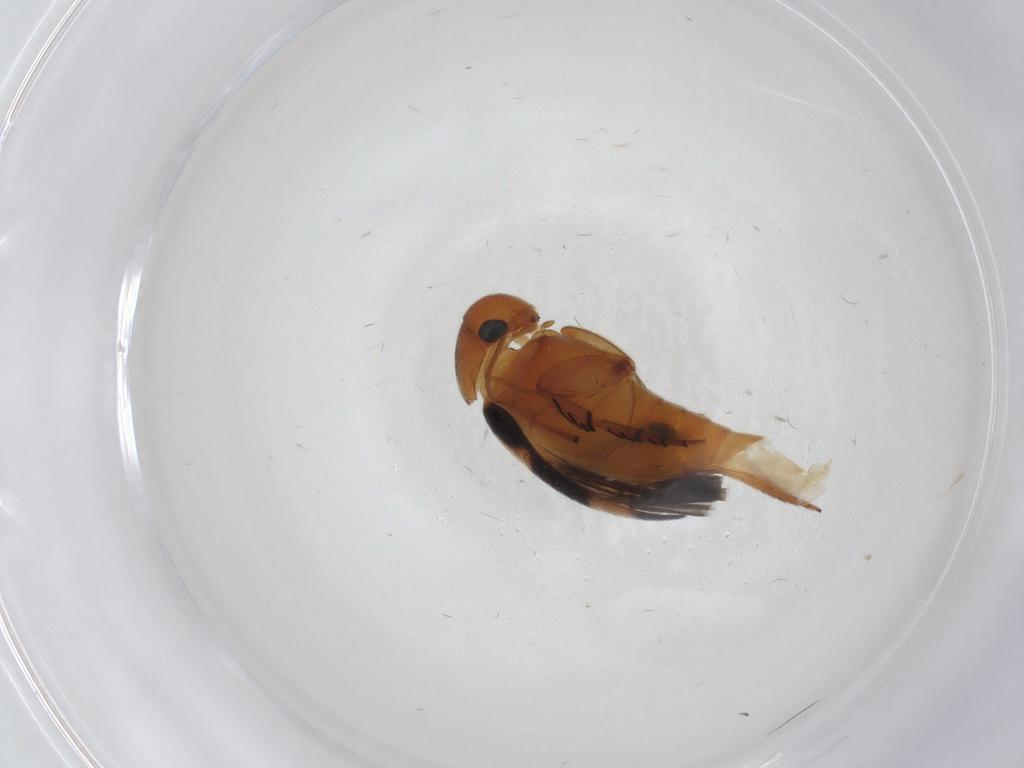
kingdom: Animalia
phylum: Arthropoda
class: Insecta
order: Coleoptera
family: Mordellidae
